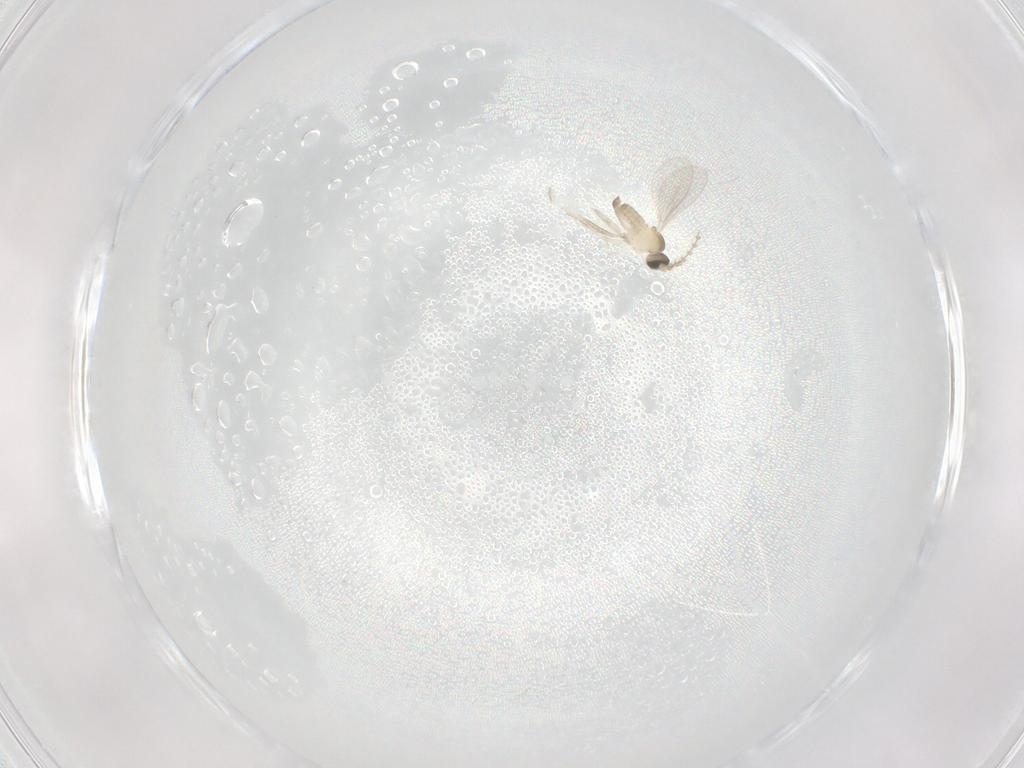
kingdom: Animalia
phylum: Arthropoda
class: Insecta
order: Diptera
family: Cecidomyiidae
